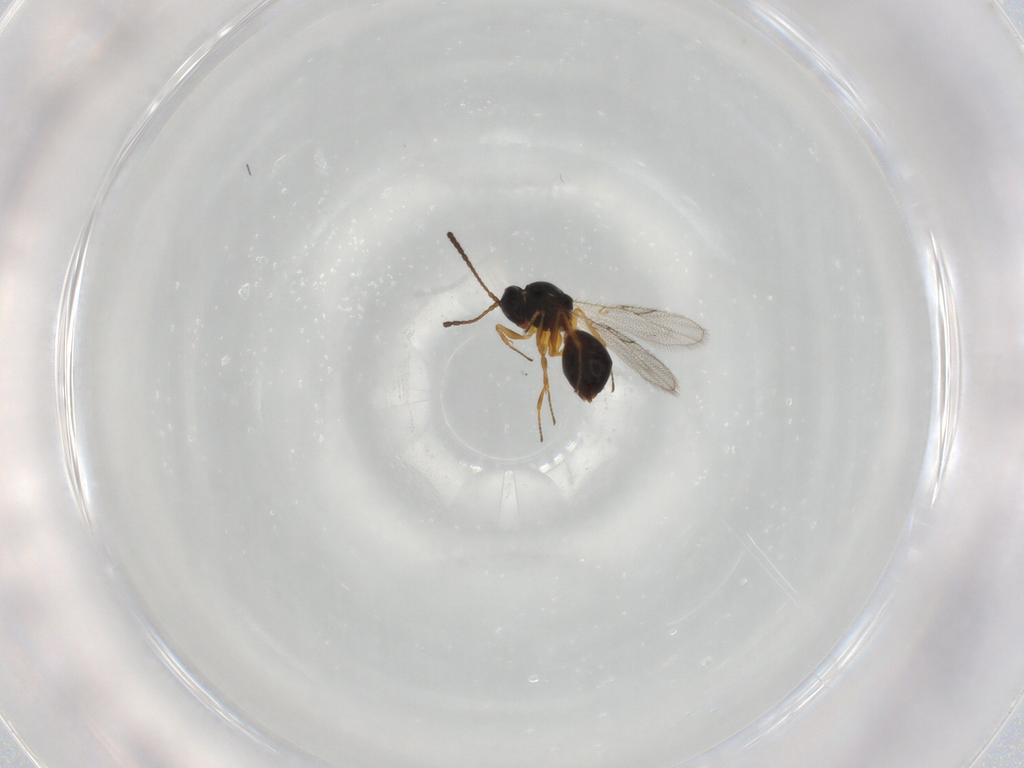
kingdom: Animalia
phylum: Arthropoda
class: Insecta
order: Hymenoptera
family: Figitidae
